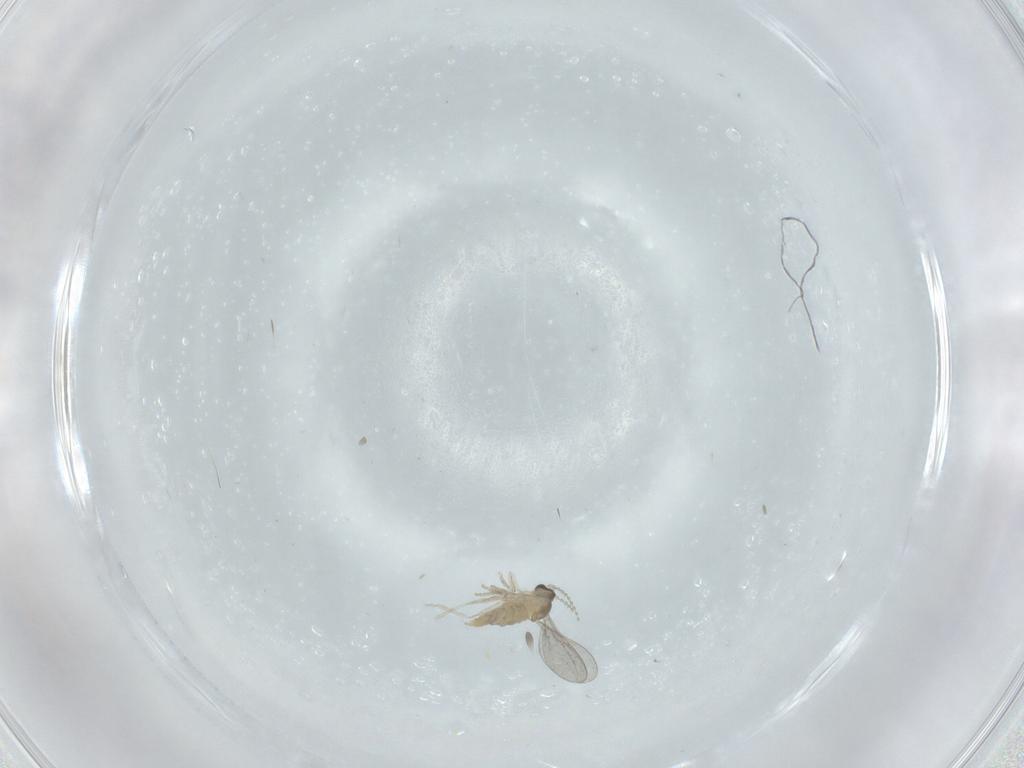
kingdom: Animalia
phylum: Arthropoda
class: Insecta
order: Diptera
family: Cecidomyiidae
